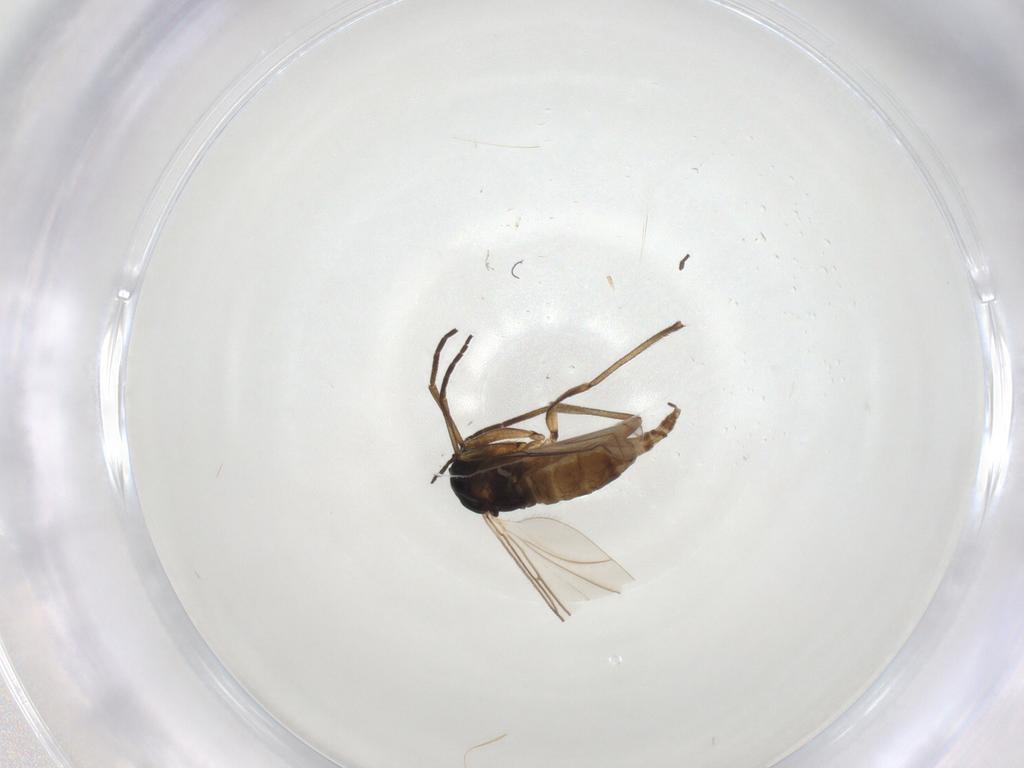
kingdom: Animalia
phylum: Arthropoda
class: Insecta
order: Diptera
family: Sciaridae
